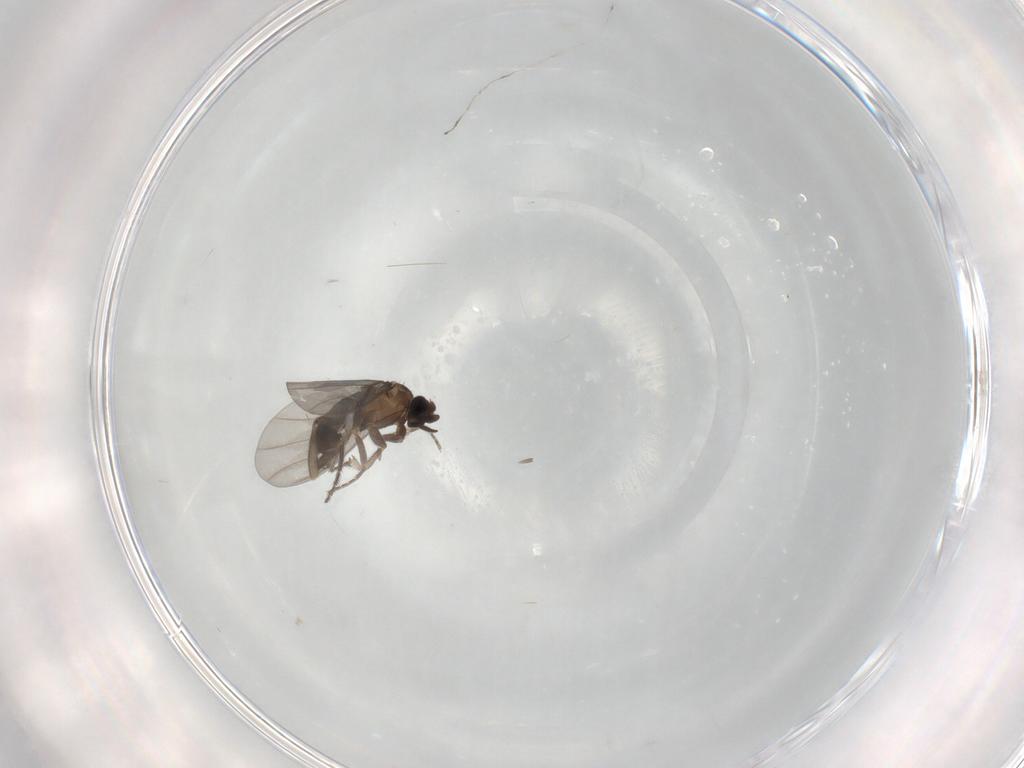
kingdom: Animalia
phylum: Arthropoda
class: Insecta
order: Diptera
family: Phoridae
